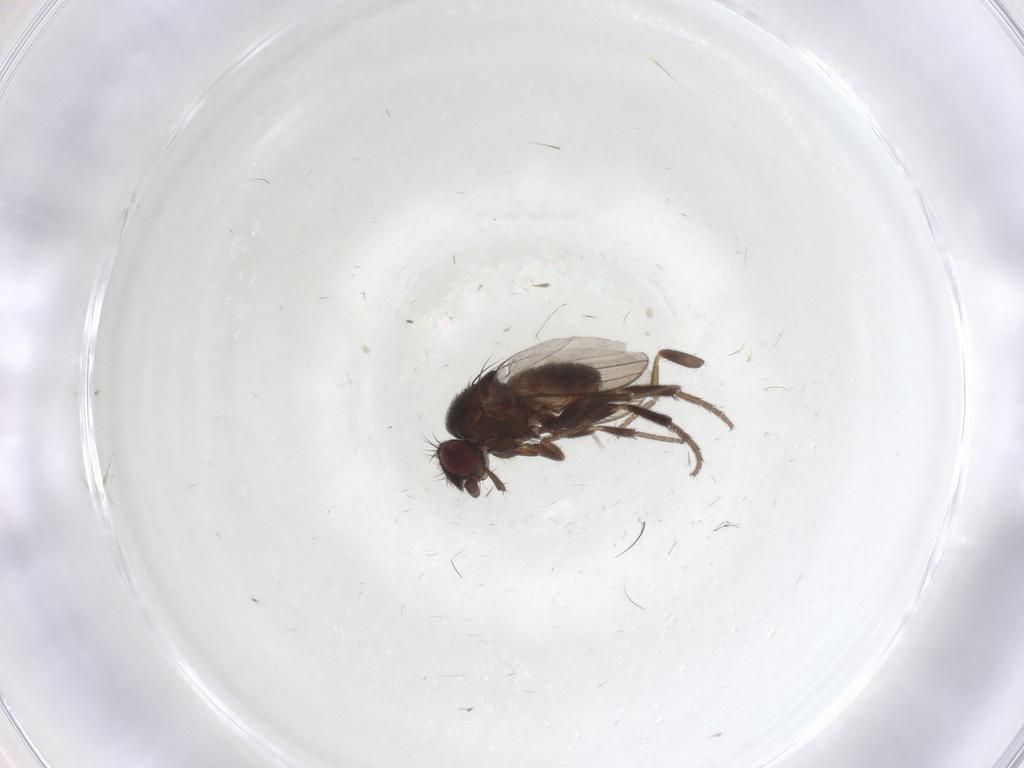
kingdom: Animalia
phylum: Arthropoda
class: Insecta
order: Diptera
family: Milichiidae
